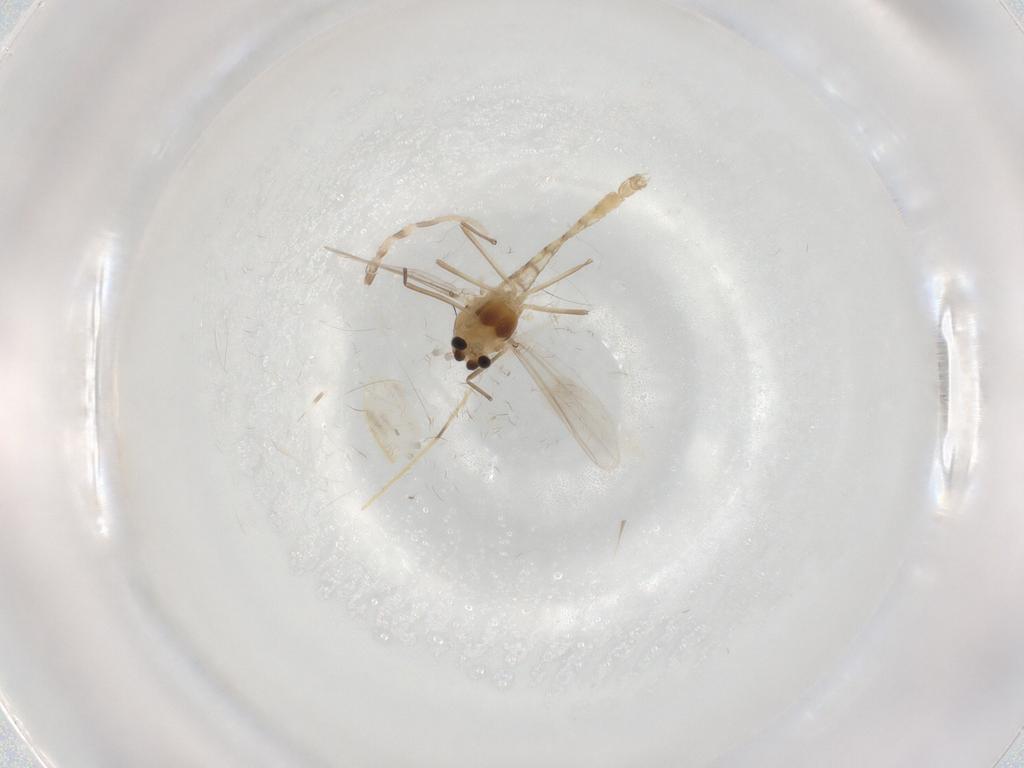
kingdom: Animalia
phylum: Arthropoda
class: Insecta
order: Diptera
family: Chironomidae
